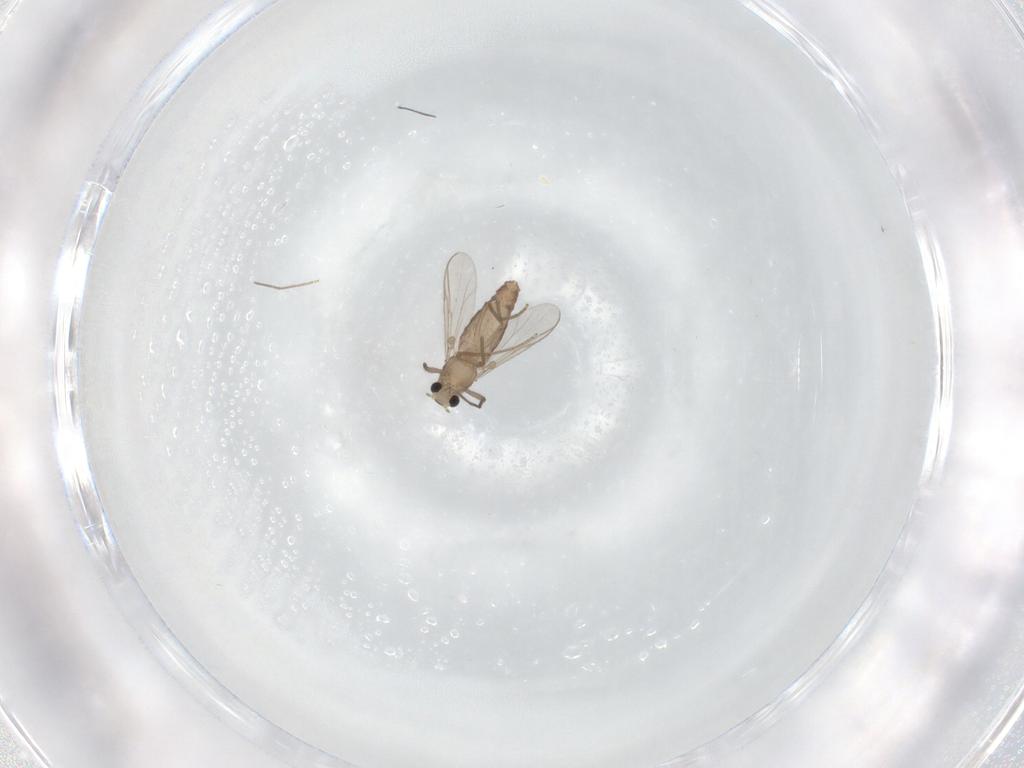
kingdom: Animalia
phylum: Arthropoda
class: Insecta
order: Diptera
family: Chironomidae
